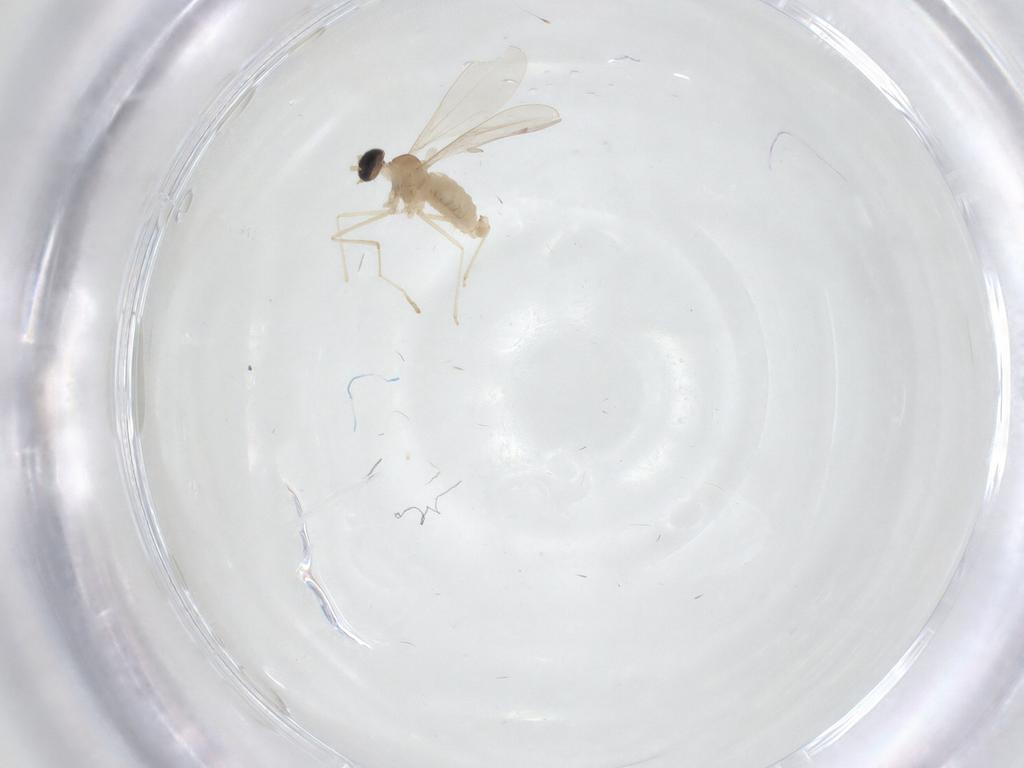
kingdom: Animalia
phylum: Arthropoda
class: Insecta
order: Diptera
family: Cecidomyiidae
